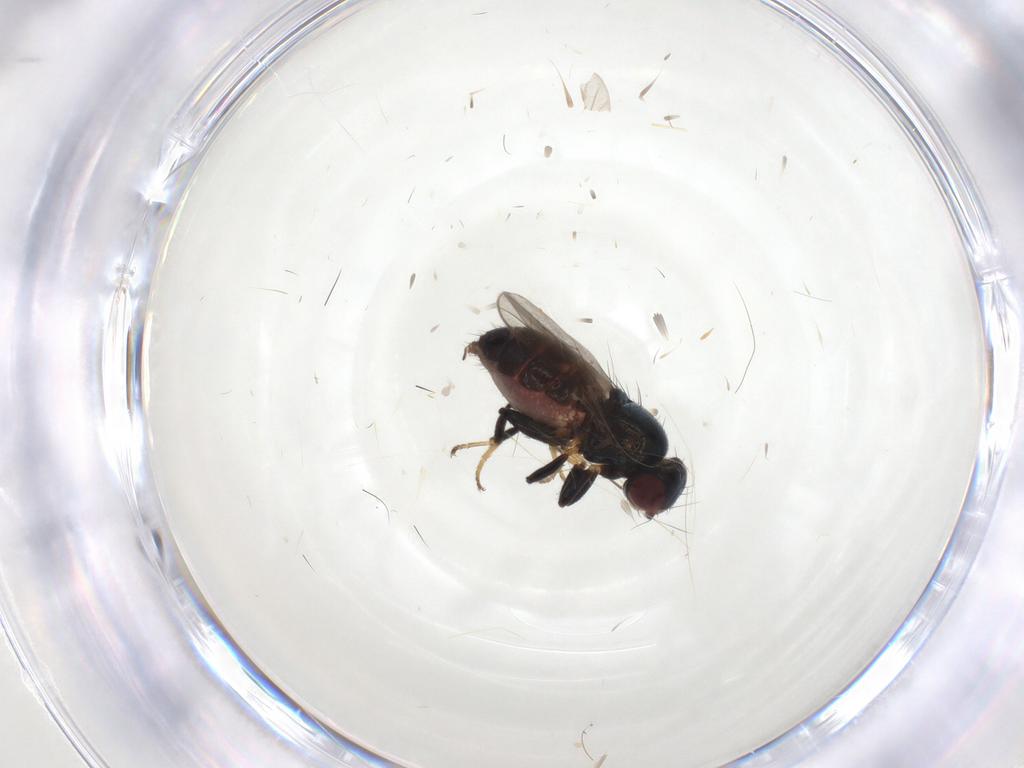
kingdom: Animalia
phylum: Arthropoda
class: Insecta
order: Diptera
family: Chloropidae
